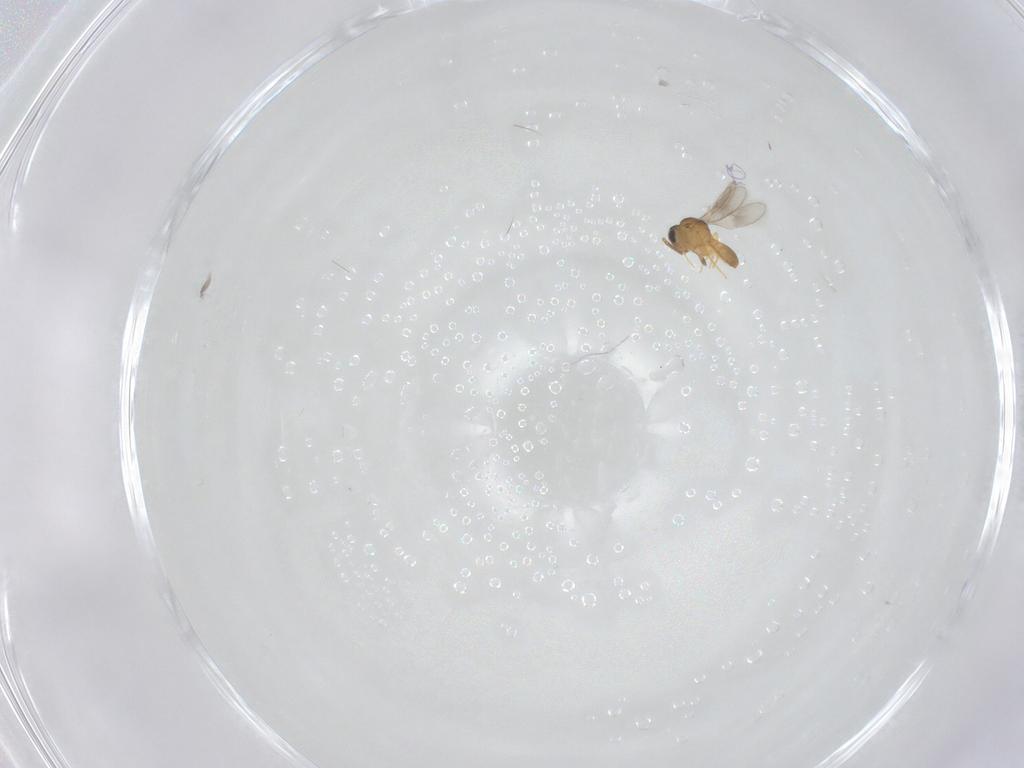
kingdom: Animalia
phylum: Arthropoda
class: Insecta
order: Hymenoptera
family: Scelionidae
